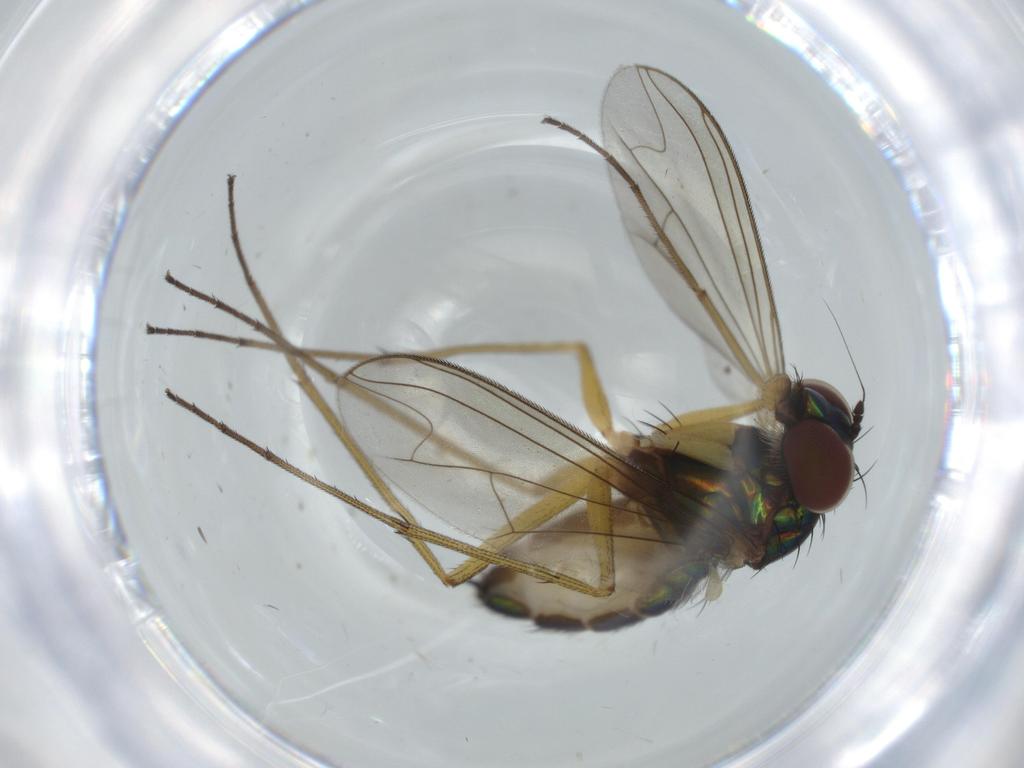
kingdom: Animalia
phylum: Arthropoda
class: Insecta
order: Diptera
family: Dolichopodidae
